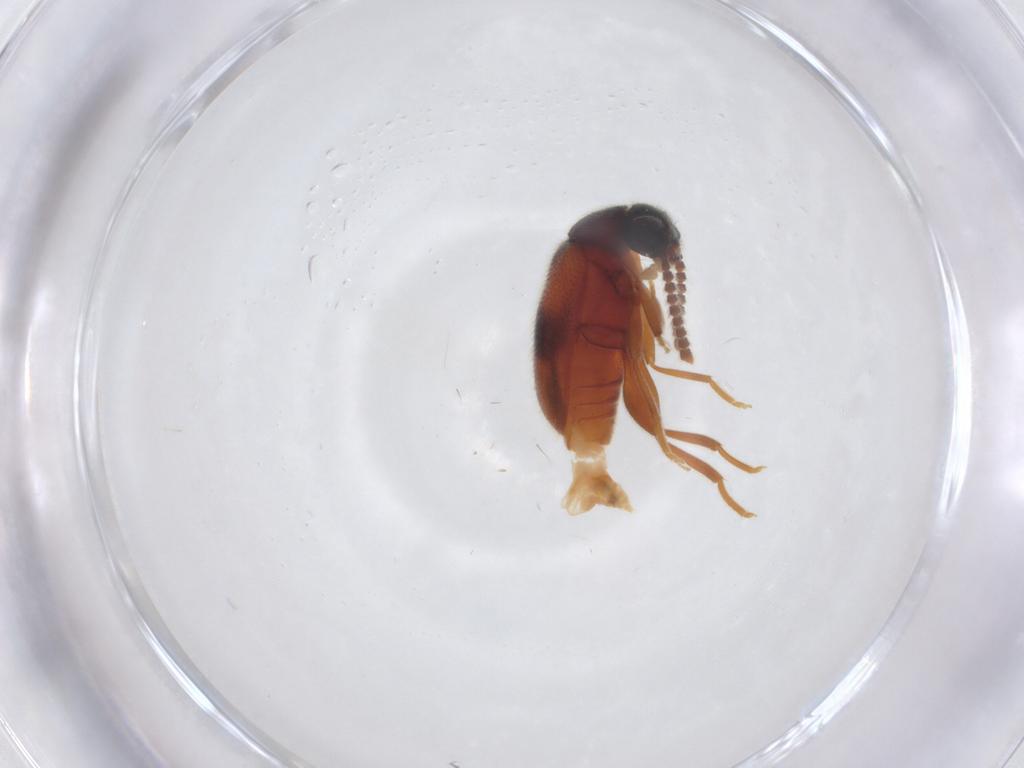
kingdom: Animalia
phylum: Arthropoda
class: Insecta
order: Coleoptera
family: Aderidae
